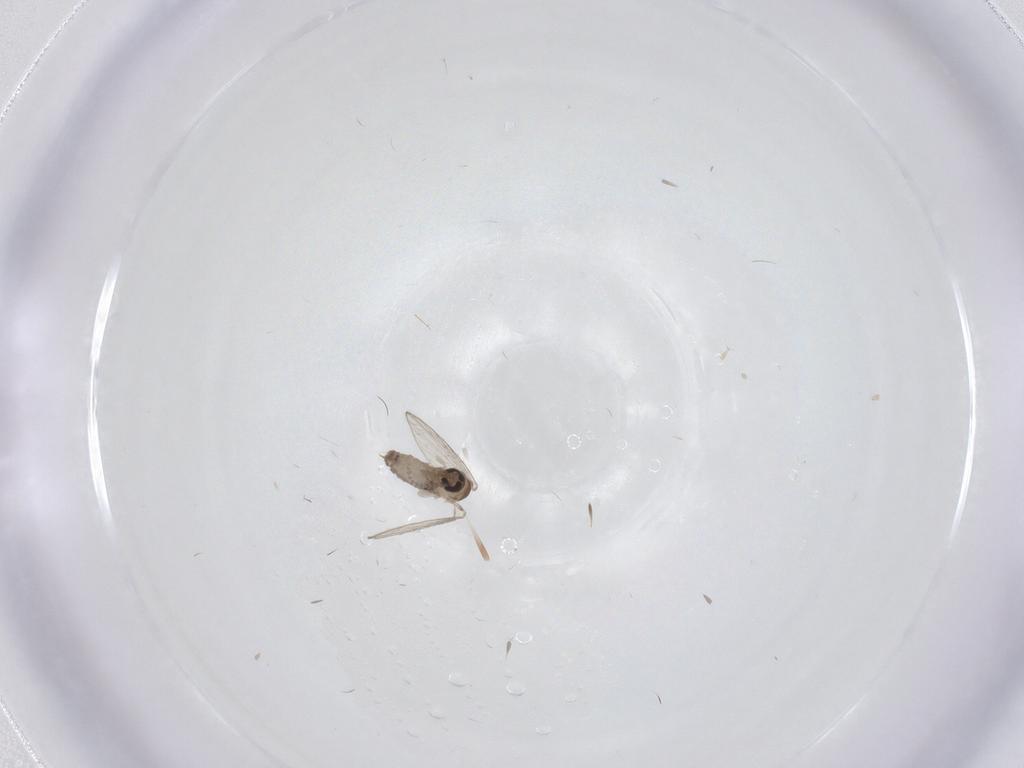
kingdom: Animalia
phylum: Arthropoda
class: Insecta
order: Diptera
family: Psychodidae
